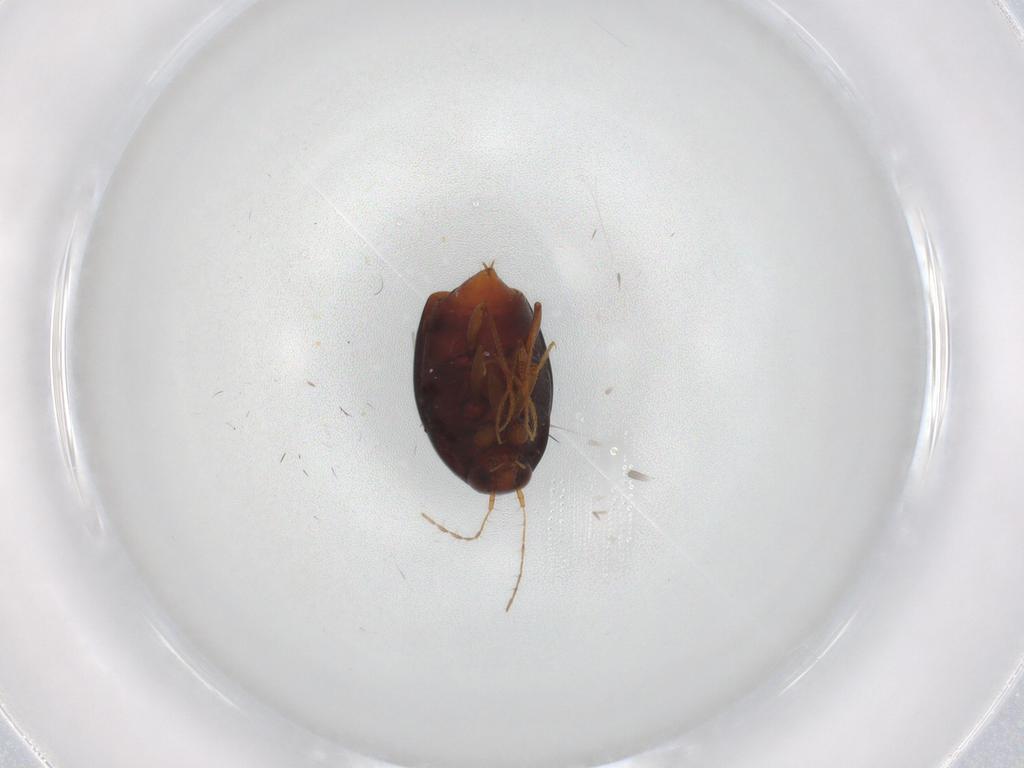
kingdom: Animalia
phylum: Arthropoda
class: Insecta
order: Coleoptera
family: Staphylinidae
